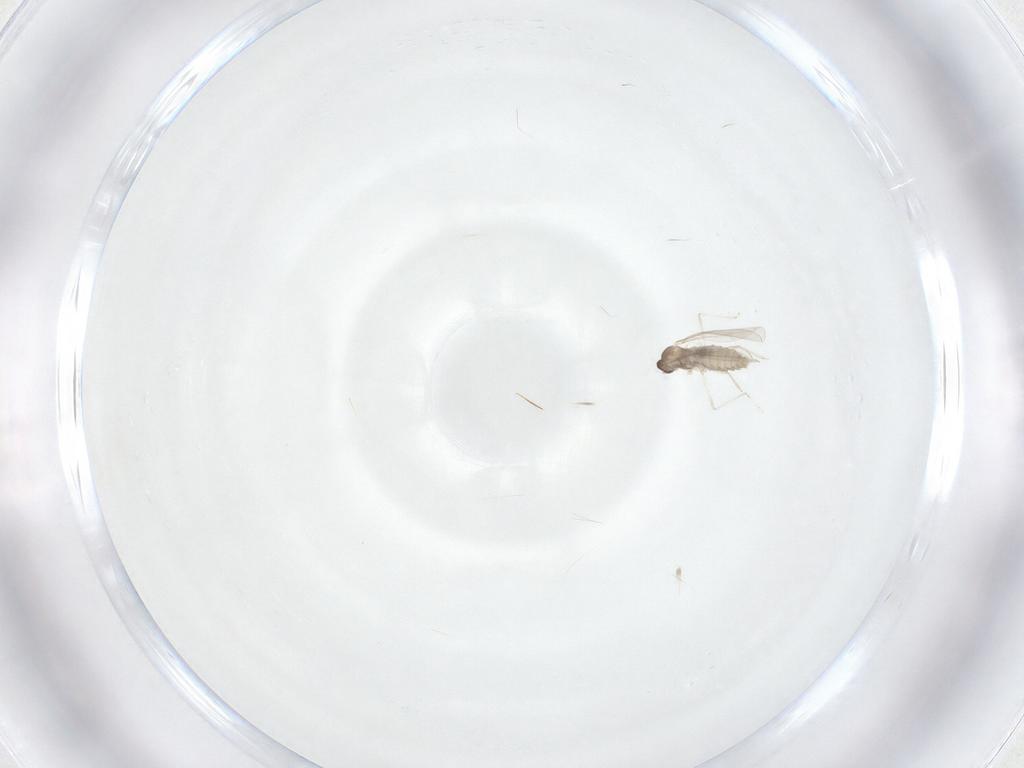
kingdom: Animalia
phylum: Arthropoda
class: Insecta
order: Diptera
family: Cecidomyiidae
